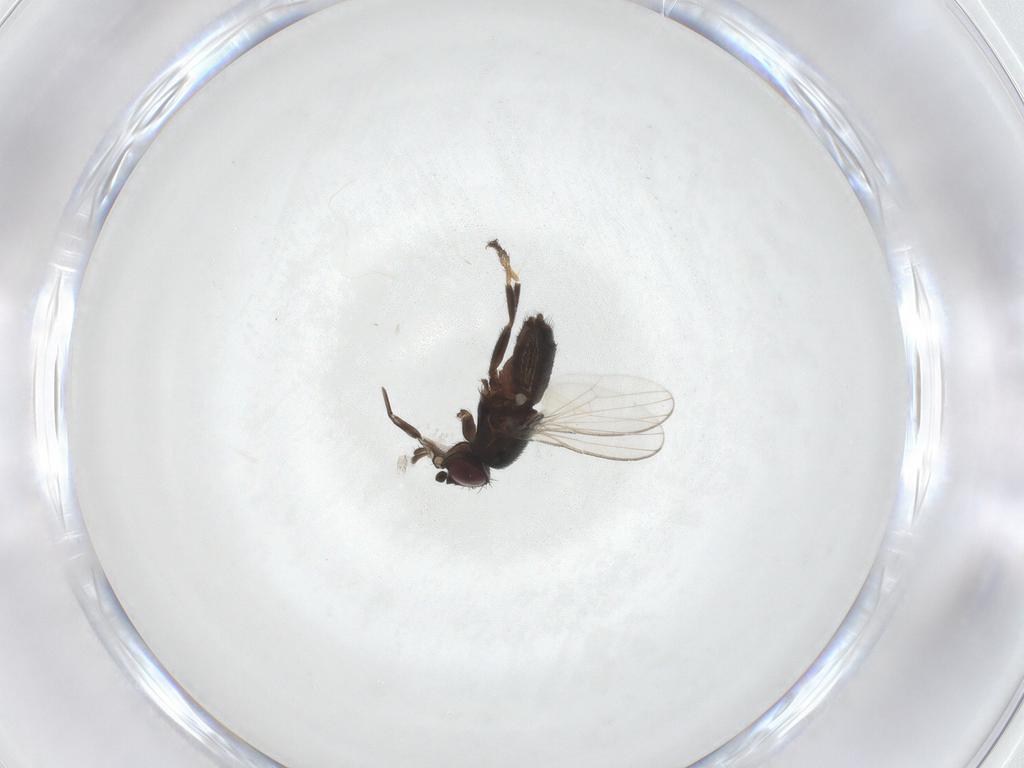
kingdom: Animalia
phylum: Arthropoda
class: Insecta
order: Diptera
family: Milichiidae
